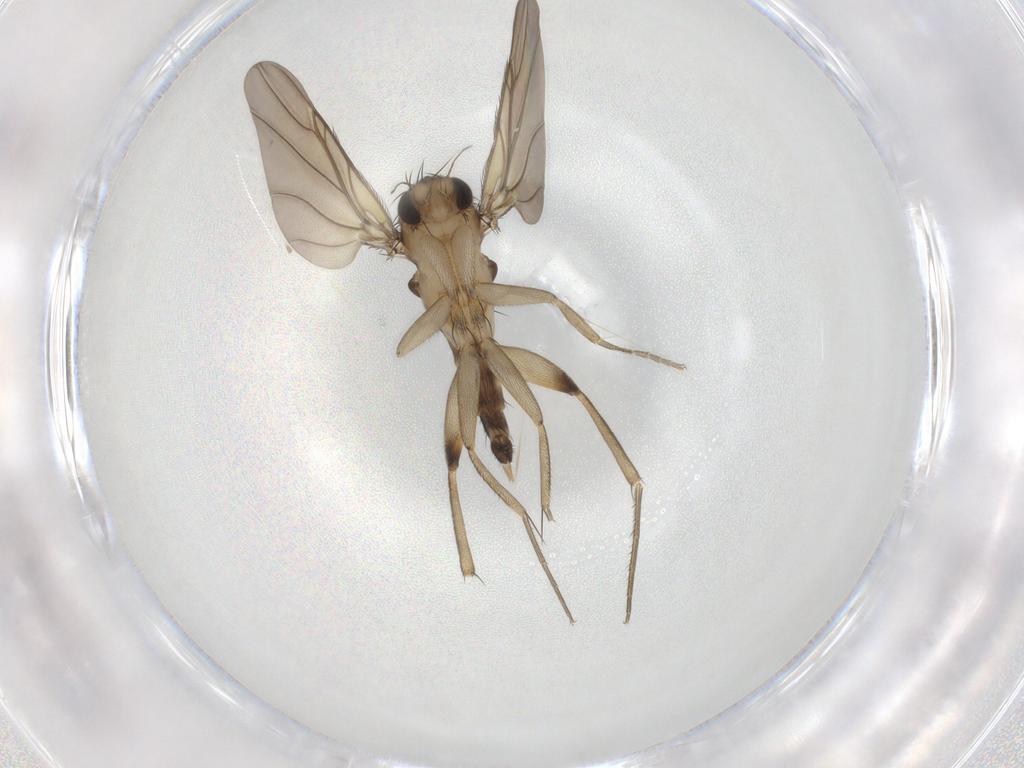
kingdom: Animalia
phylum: Arthropoda
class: Insecta
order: Diptera
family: Phoridae
